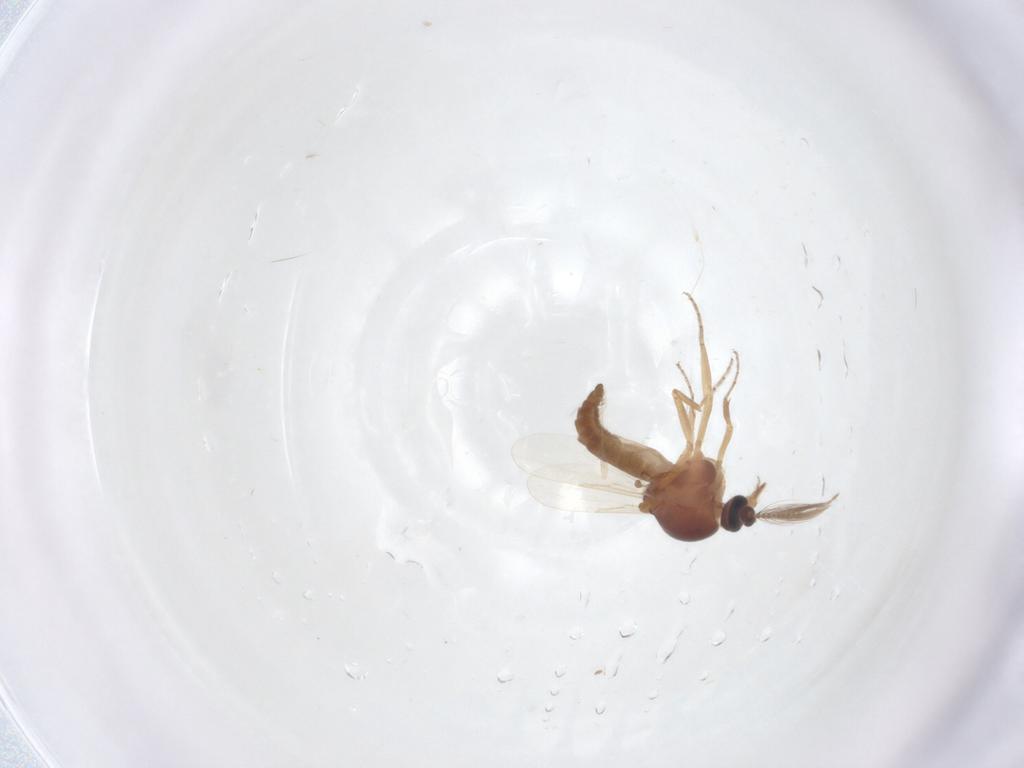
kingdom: Animalia
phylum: Arthropoda
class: Insecta
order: Diptera
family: Ceratopogonidae
